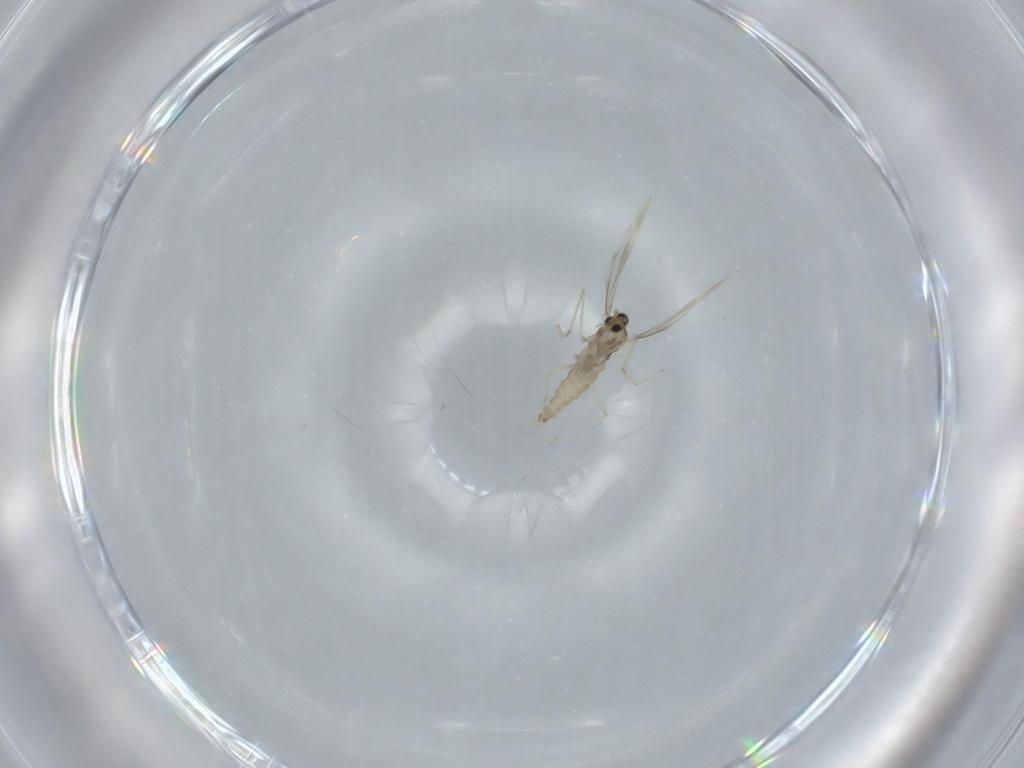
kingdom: Animalia
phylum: Arthropoda
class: Insecta
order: Diptera
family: Cecidomyiidae
